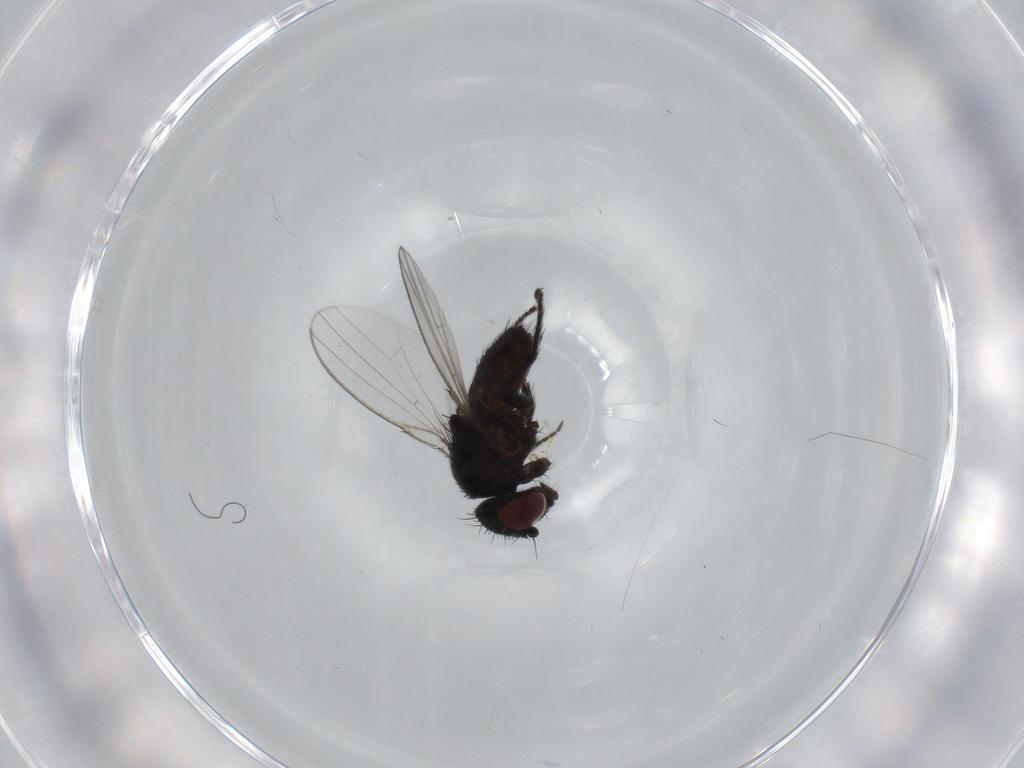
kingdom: Animalia
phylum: Arthropoda
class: Insecta
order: Diptera
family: Milichiidae
